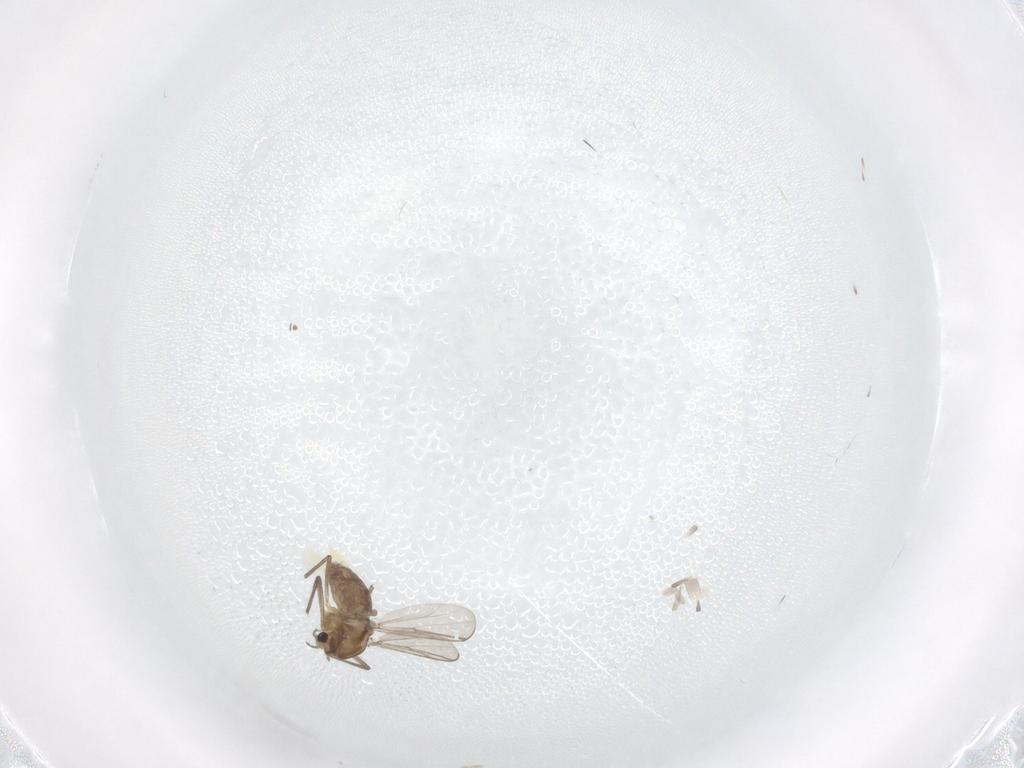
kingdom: Animalia
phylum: Arthropoda
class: Insecta
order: Diptera
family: Chironomidae
